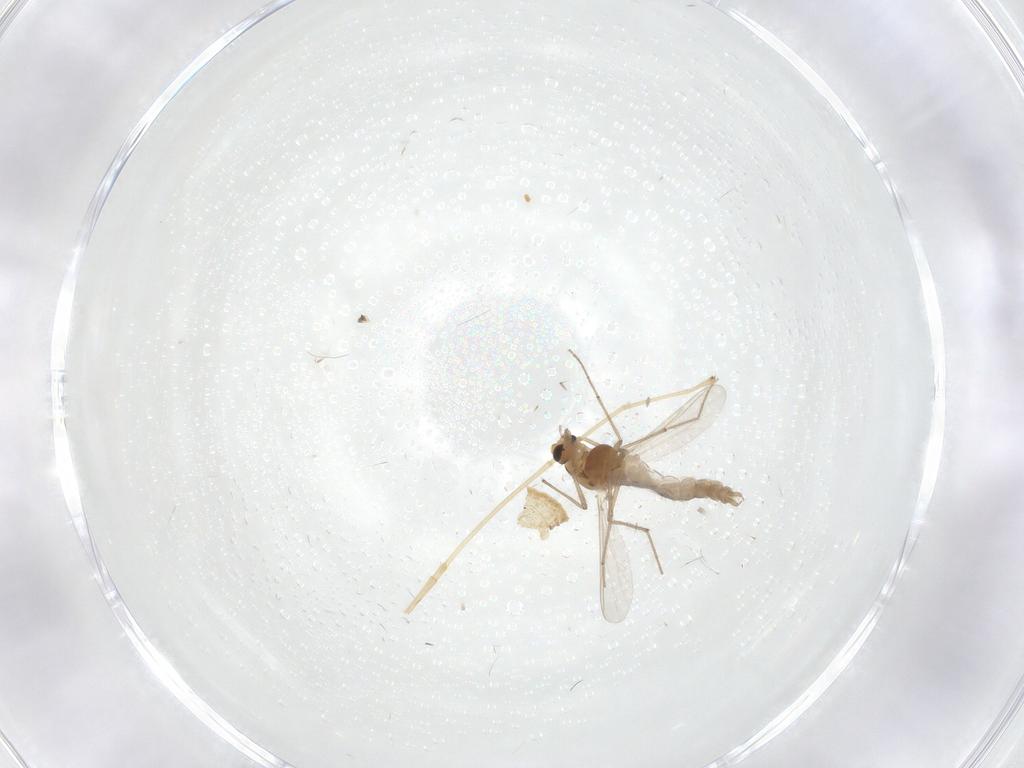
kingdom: Animalia
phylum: Arthropoda
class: Insecta
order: Diptera
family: Chironomidae
